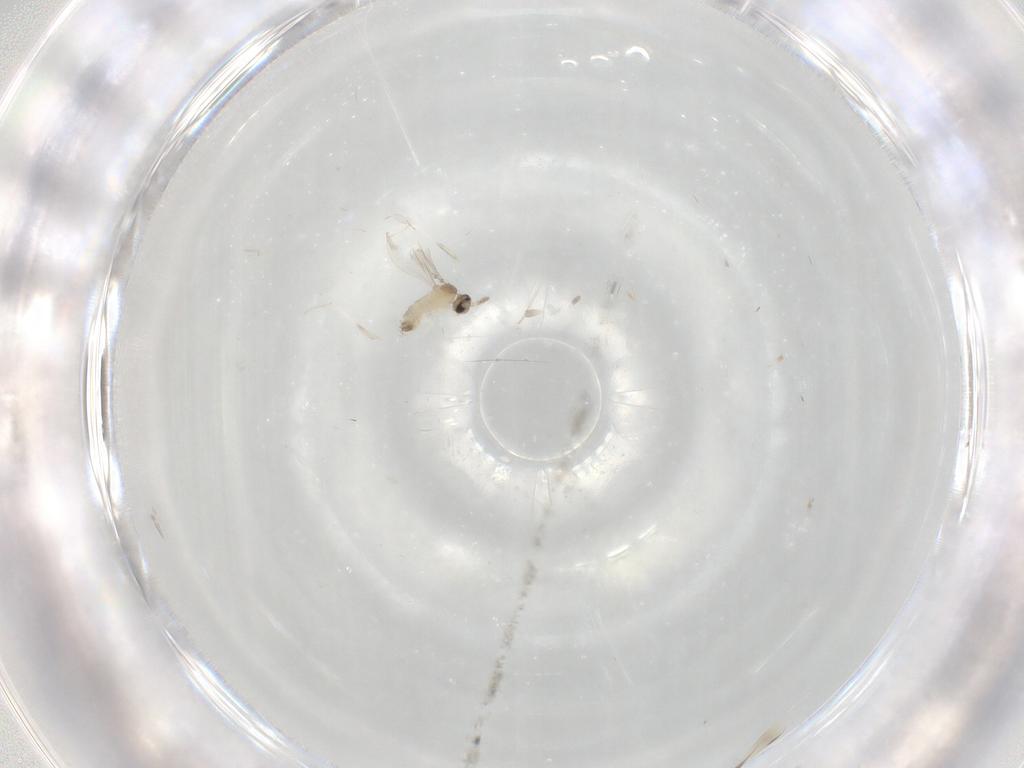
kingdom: Animalia
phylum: Arthropoda
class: Insecta
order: Diptera
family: Cecidomyiidae
